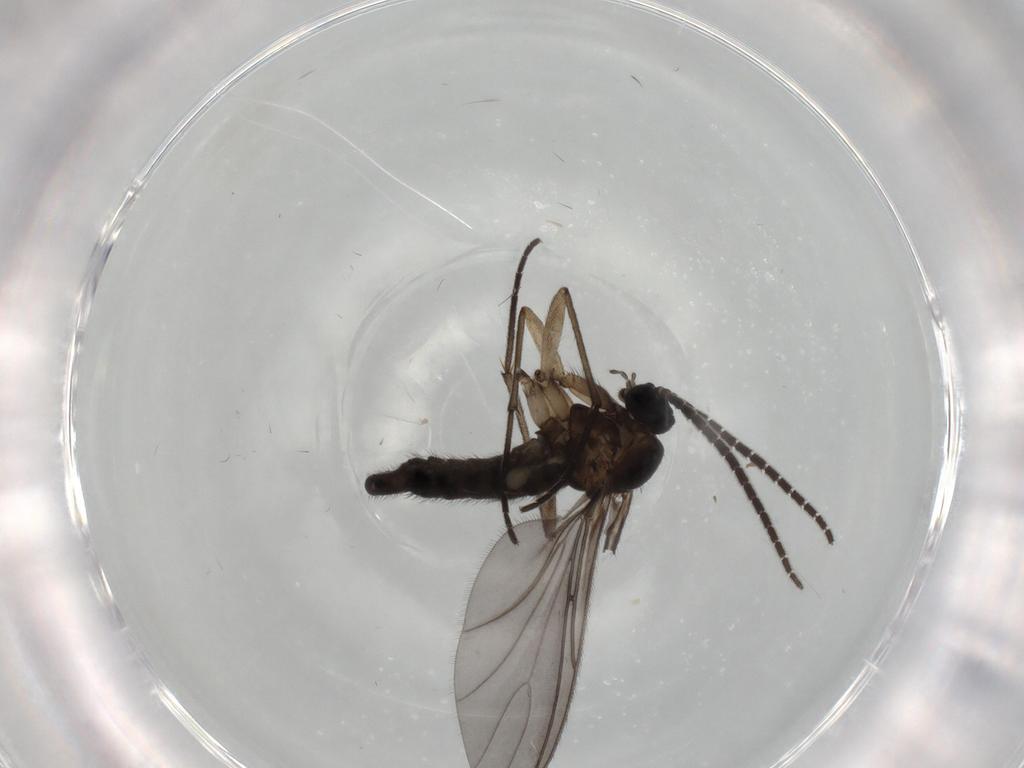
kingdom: Animalia
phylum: Arthropoda
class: Insecta
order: Diptera
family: Sciaridae
